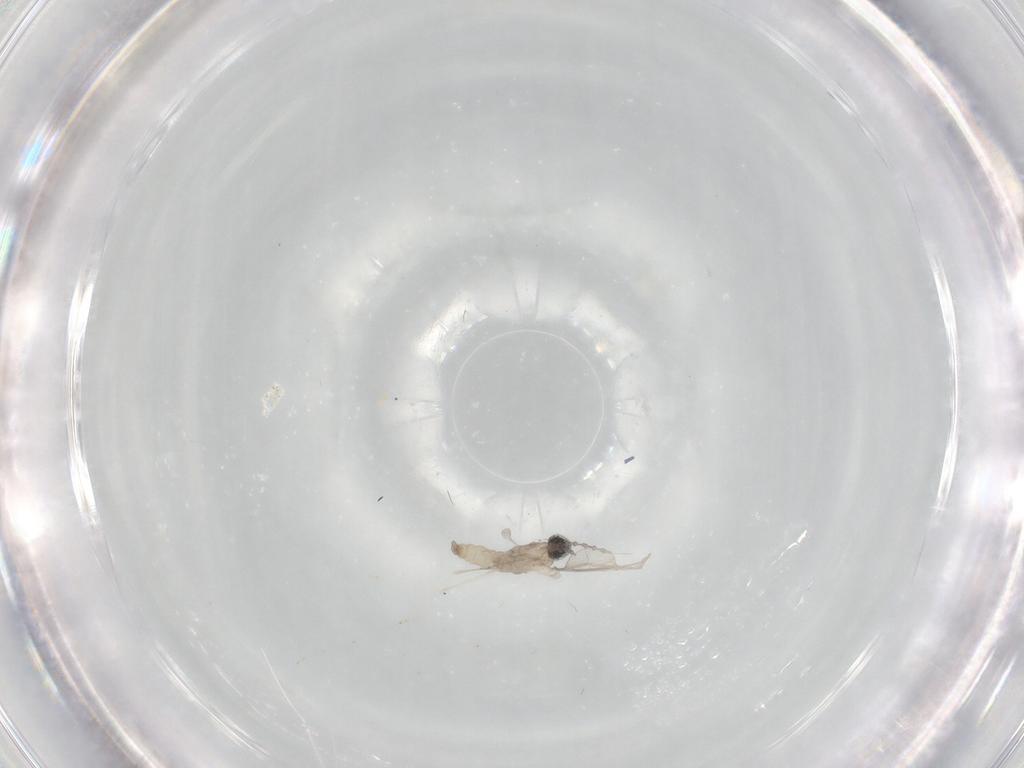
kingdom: Animalia
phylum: Arthropoda
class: Insecta
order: Diptera
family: Cecidomyiidae
